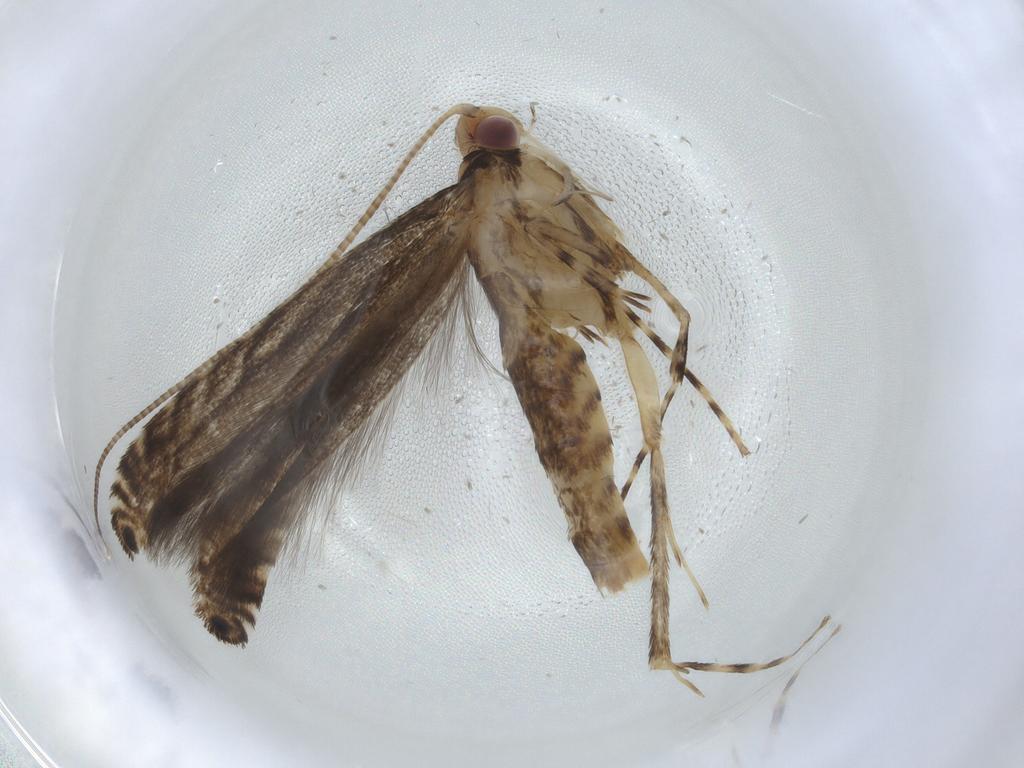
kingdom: Animalia
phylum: Arthropoda
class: Insecta
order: Lepidoptera
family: Gracillariidae
